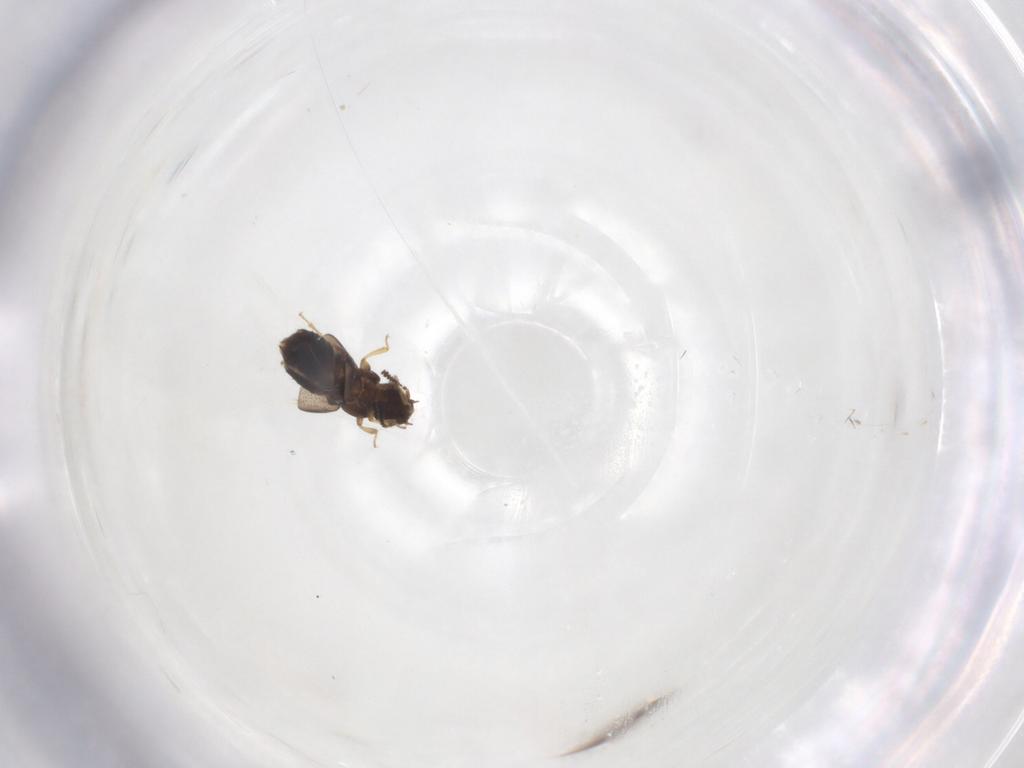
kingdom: Animalia
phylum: Arthropoda
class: Insecta
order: Coleoptera
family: Staphylinidae
